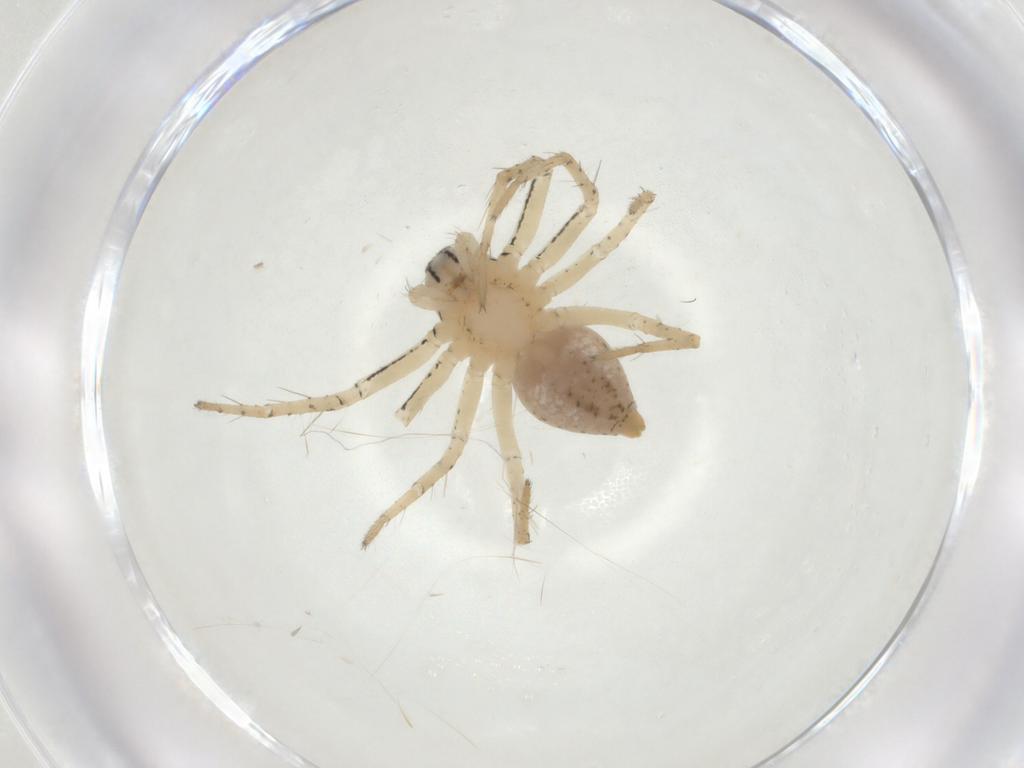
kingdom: Animalia
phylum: Arthropoda
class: Arachnida
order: Araneae
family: Oxyopidae
